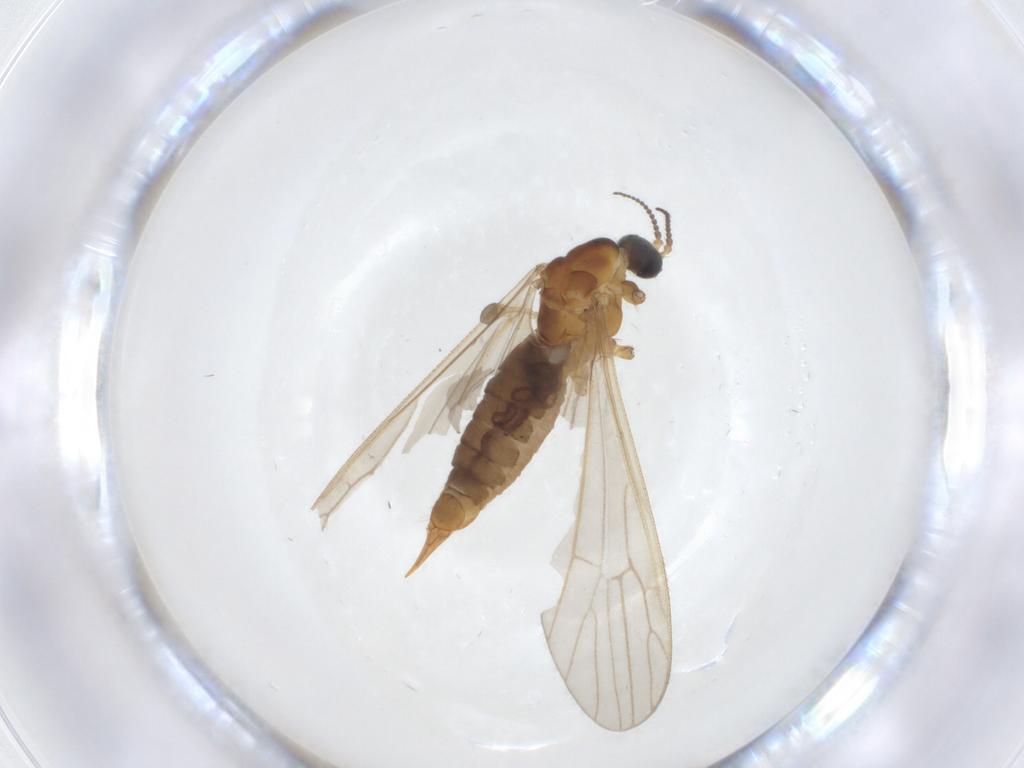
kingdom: Animalia
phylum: Arthropoda
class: Insecta
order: Diptera
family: Limoniidae
